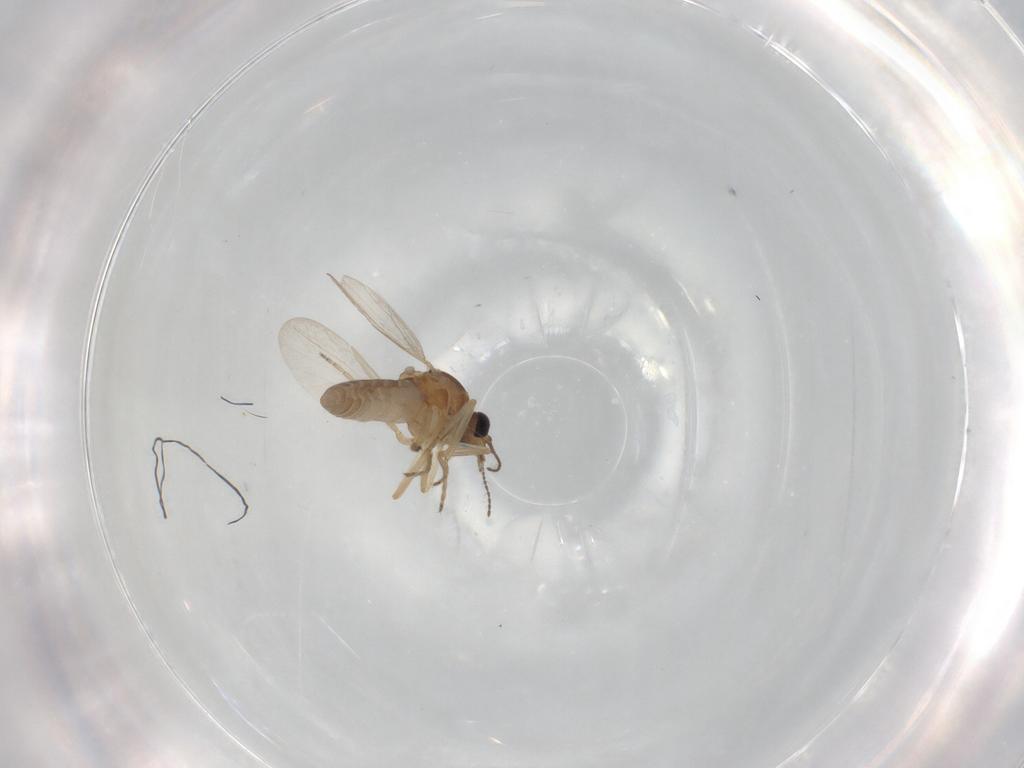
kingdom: Animalia
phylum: Arthropoda
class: Insecta
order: Diptera
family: Ceratopogonidae
